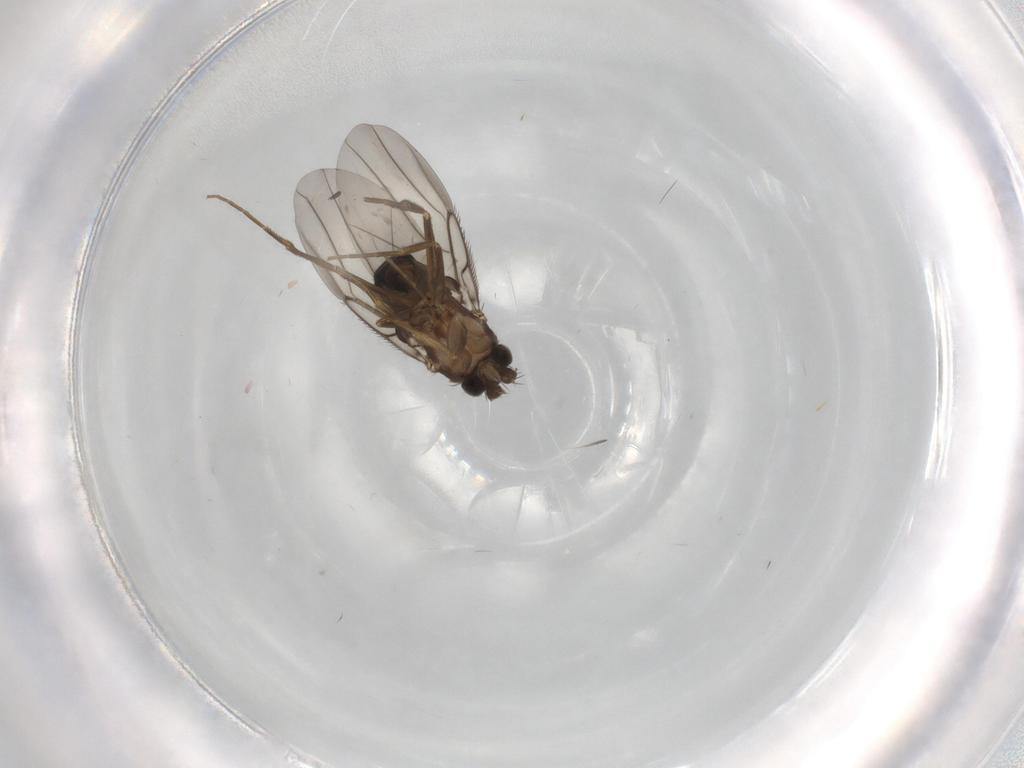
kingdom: Animalia
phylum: Arthropoda
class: Insecta
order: Diptera
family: Phoridae
